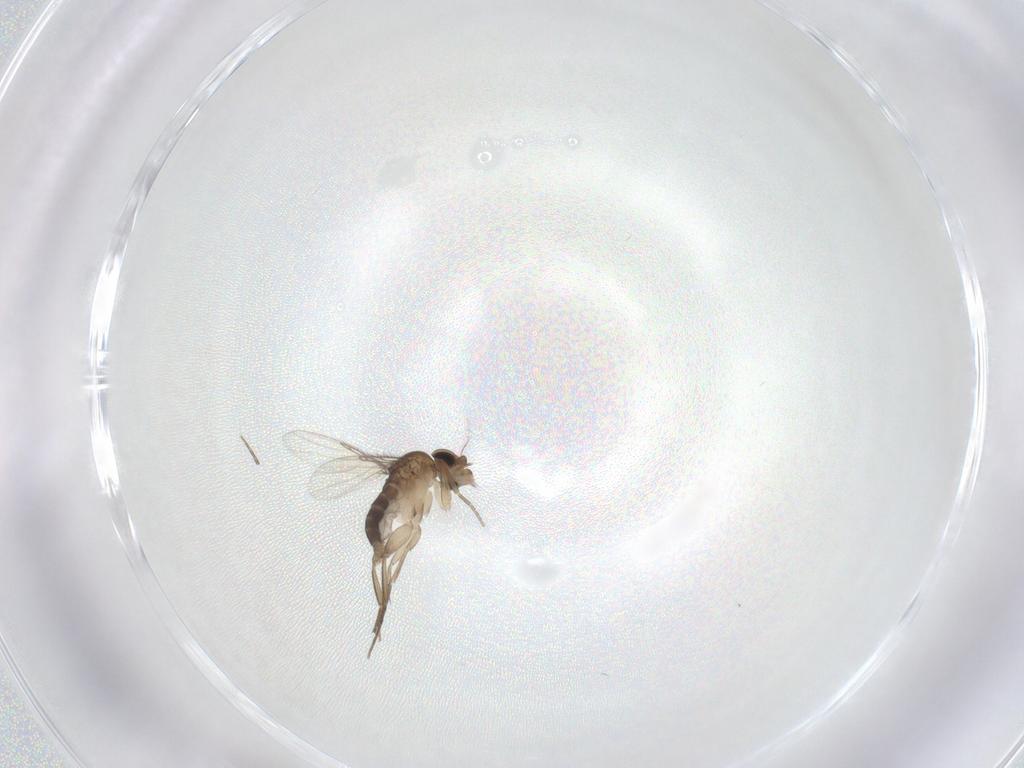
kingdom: Animalia
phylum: Arthropoda
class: Insecta
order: Diptera
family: Phoridae
